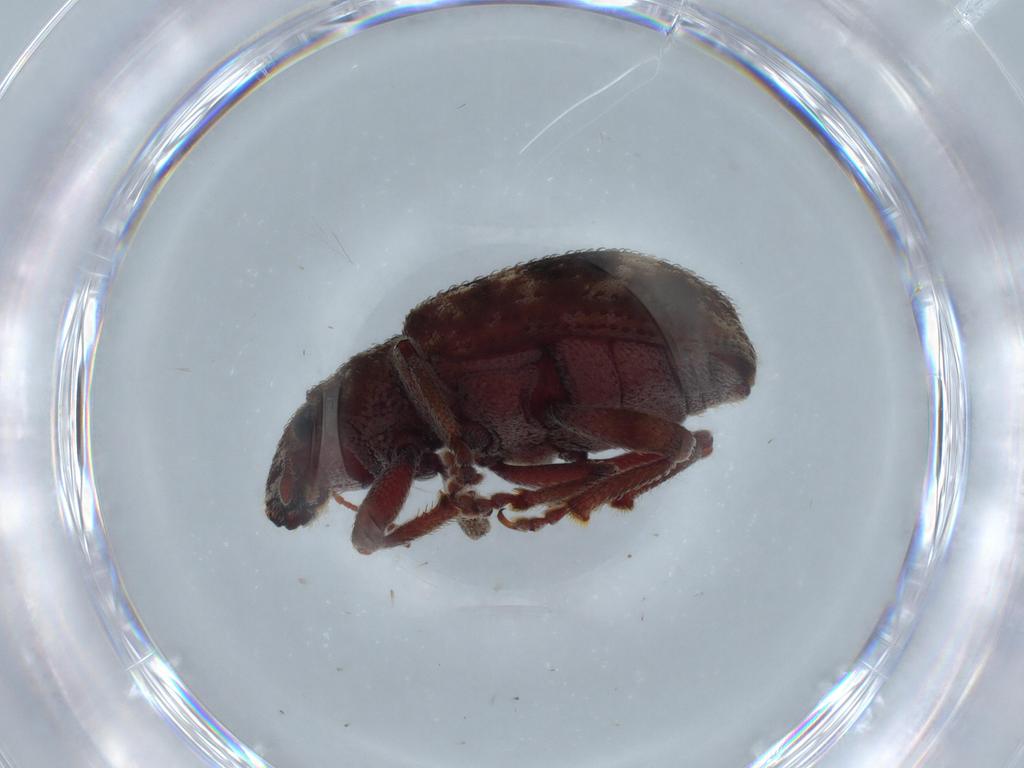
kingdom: Animalia
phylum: Arthropoda
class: Insecta
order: Coleoptera
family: Curculionidae
